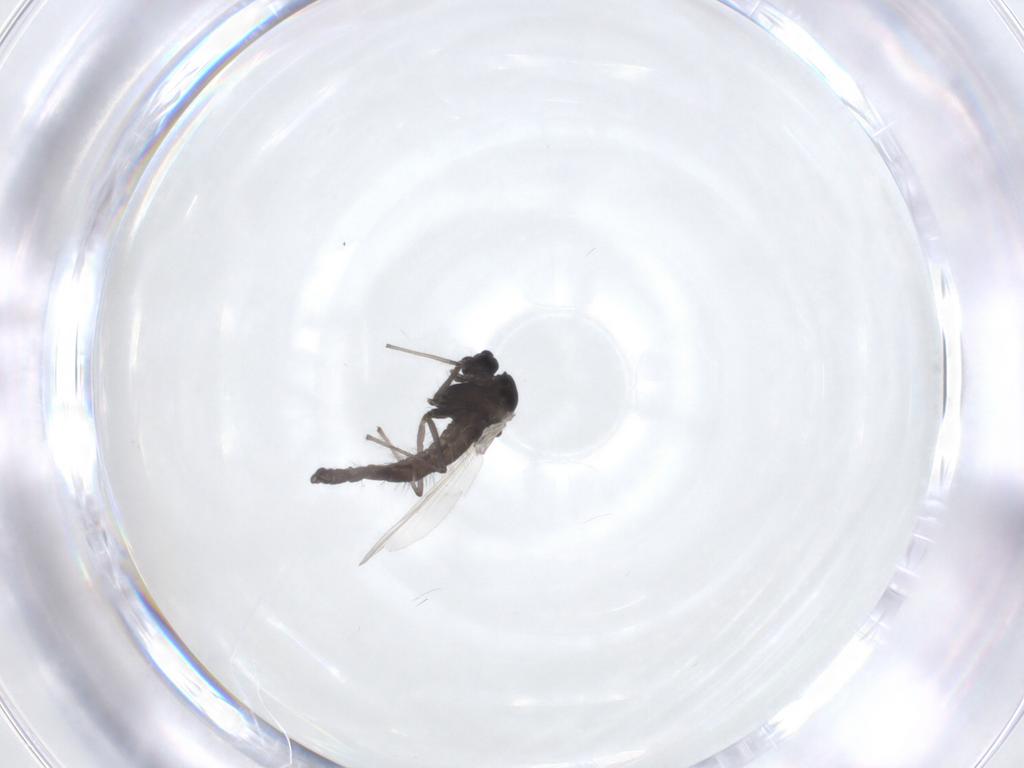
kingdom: Animalia
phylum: Arthropoda
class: Insecta
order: Diptera
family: Chironomidae
